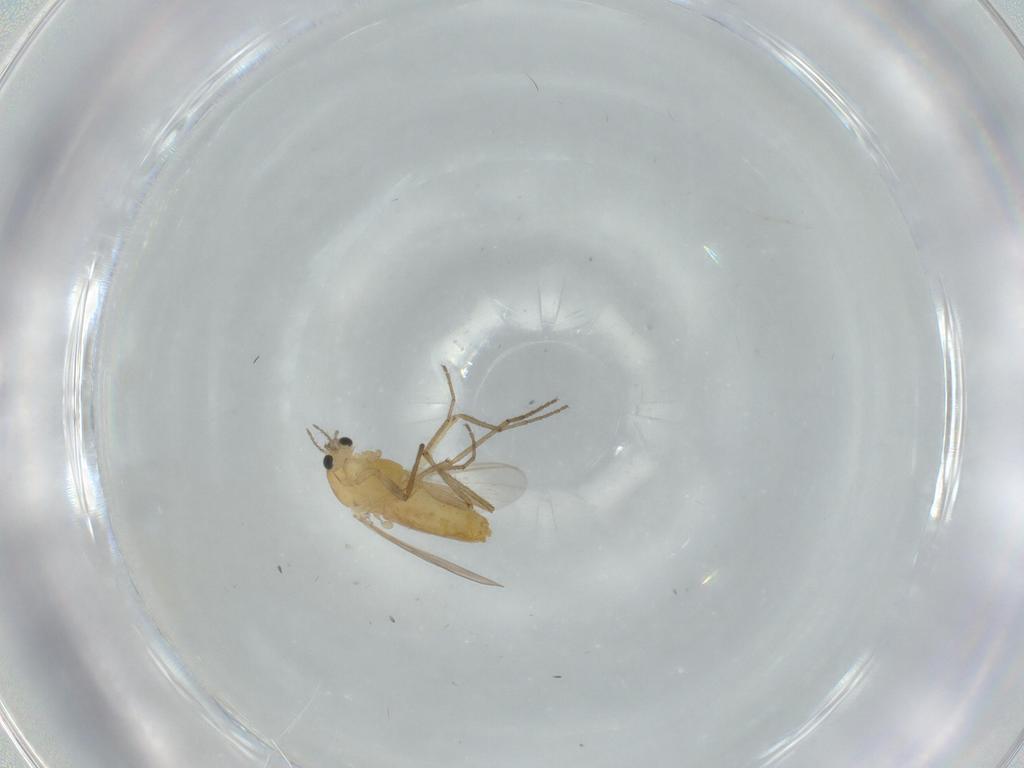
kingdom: Animalia
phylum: Arthropoda
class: Insecta
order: Diptera
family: Chironomidae
